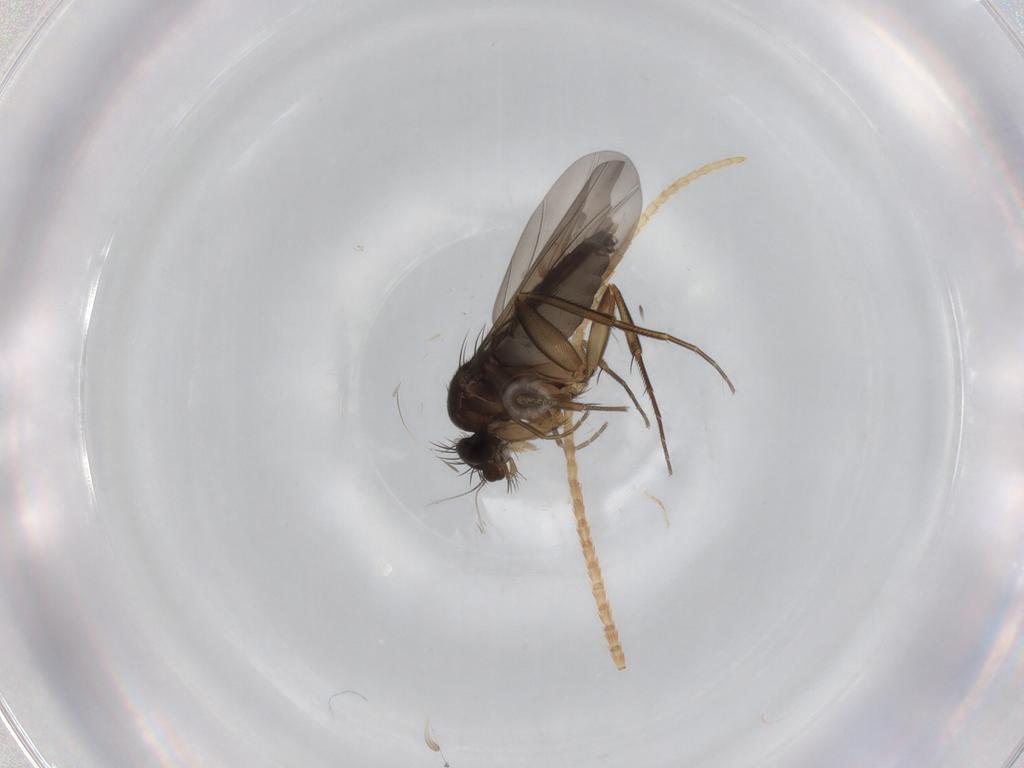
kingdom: Animalia
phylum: Arthropoda
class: Insecta
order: Diptera
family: Phoridae
